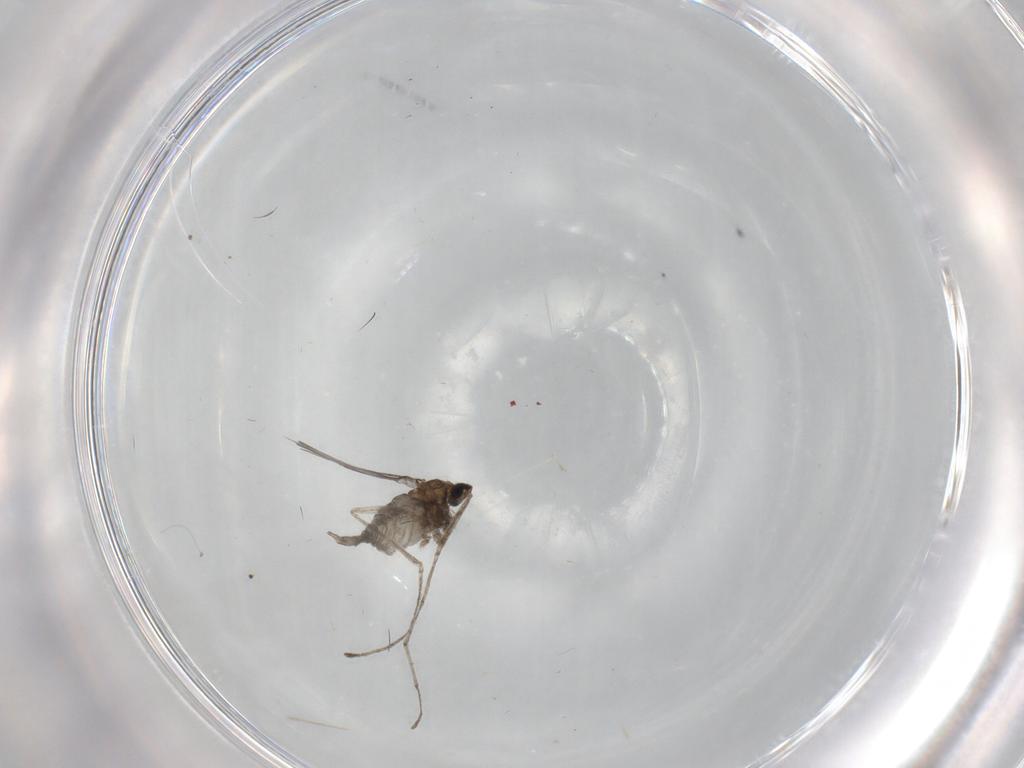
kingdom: Animalia
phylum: Arthropoda
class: Insecta
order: Diptera
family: Cecidomyiidae
